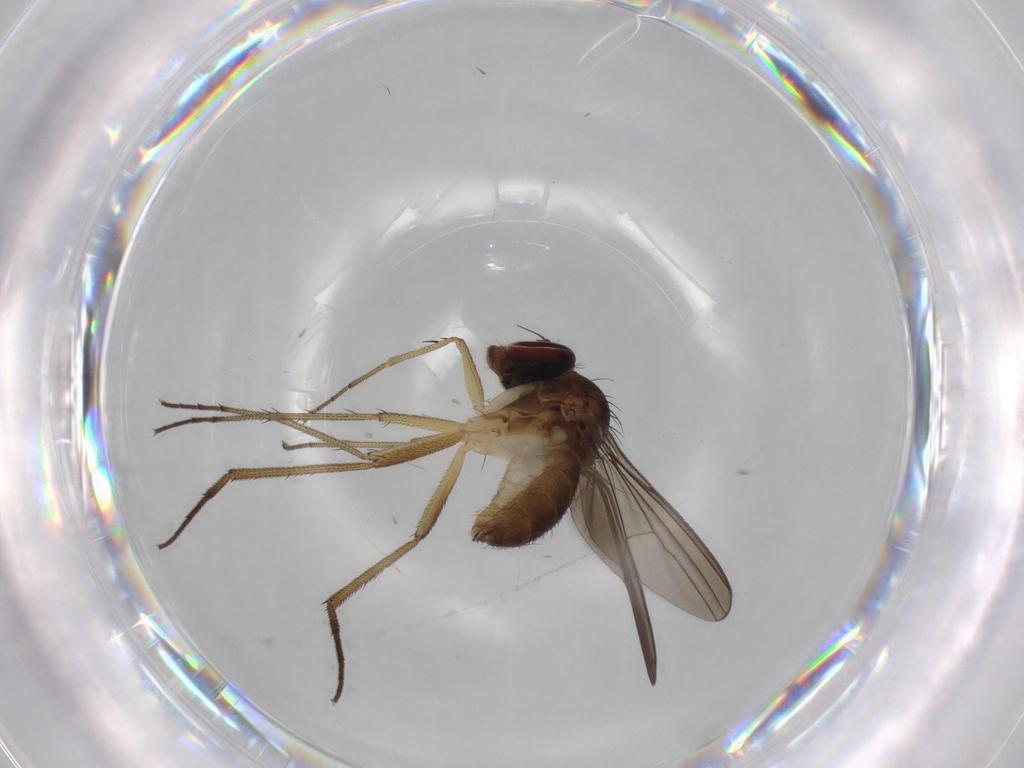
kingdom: Animalia
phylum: Arthropoda
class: Insecta
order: Diptera
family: Dolichopodidae
